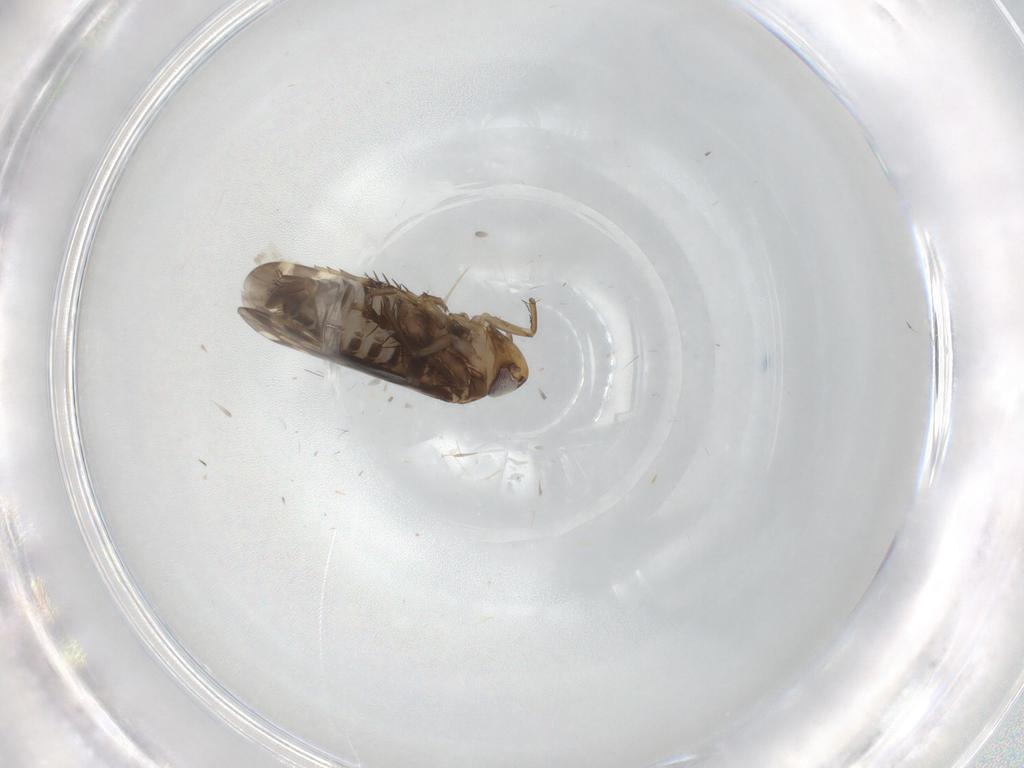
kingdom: Animalia
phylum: Arthropoda
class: Insecta
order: Hemiptera
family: Cicadellidae
